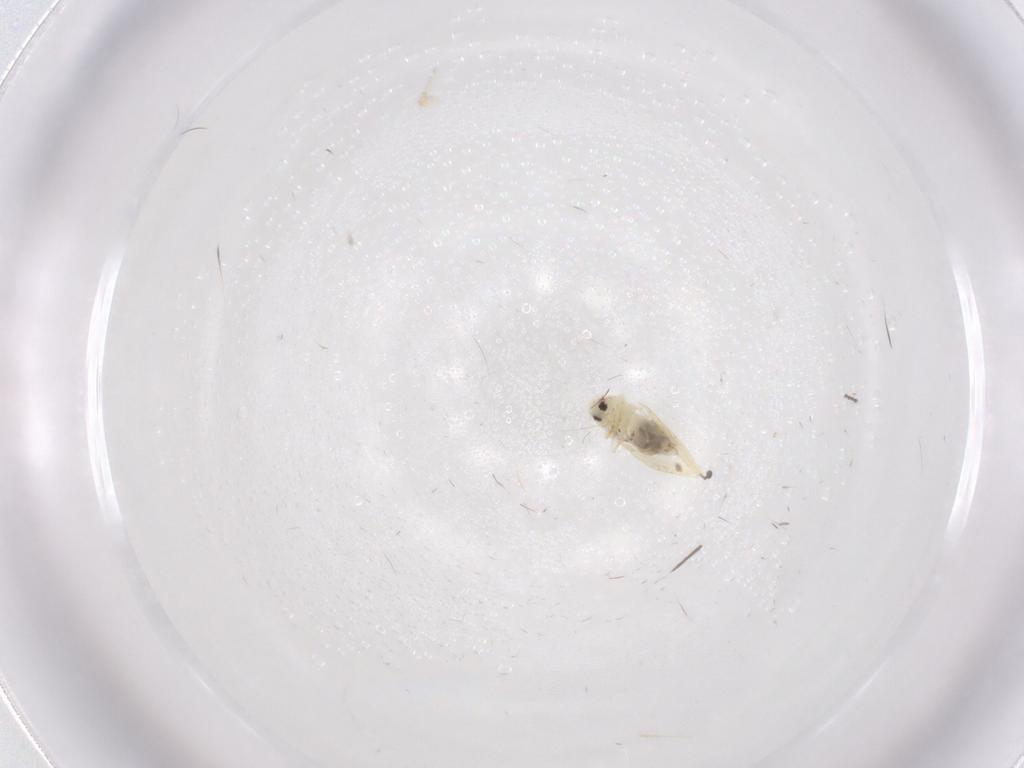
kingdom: Animalia
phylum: Arthropoda
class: Insecta
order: Hemiptera
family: Aleyrodidae
